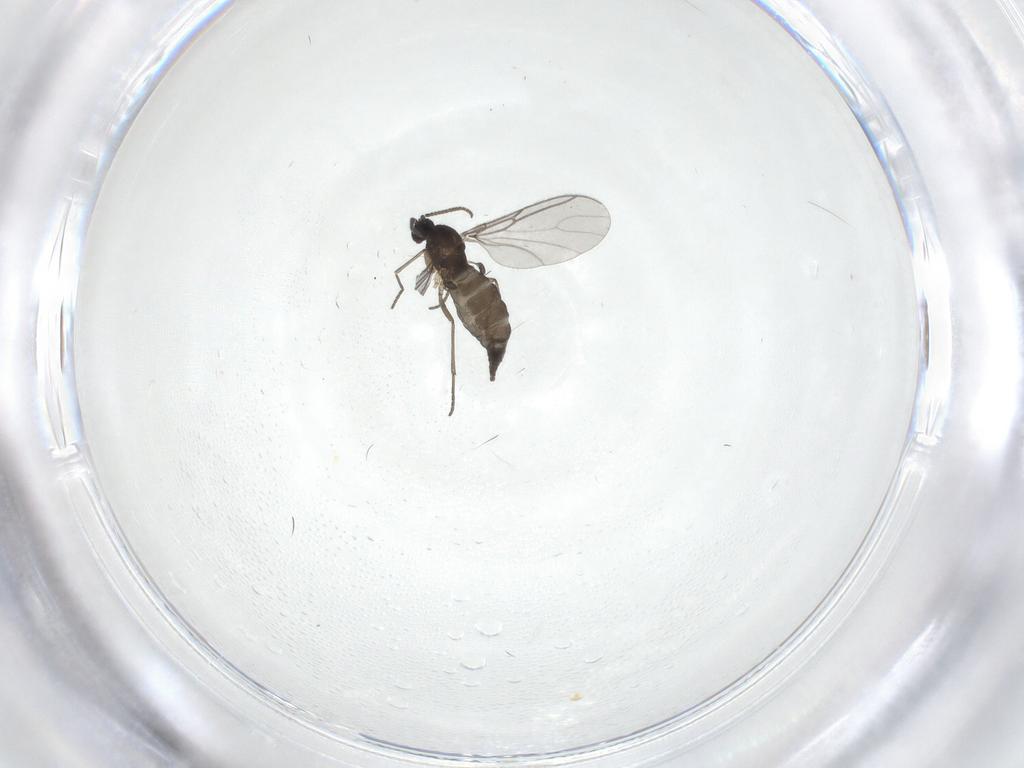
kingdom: Animalia
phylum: Arthropoda
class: Insecta
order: Diptera
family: Sciaridae
